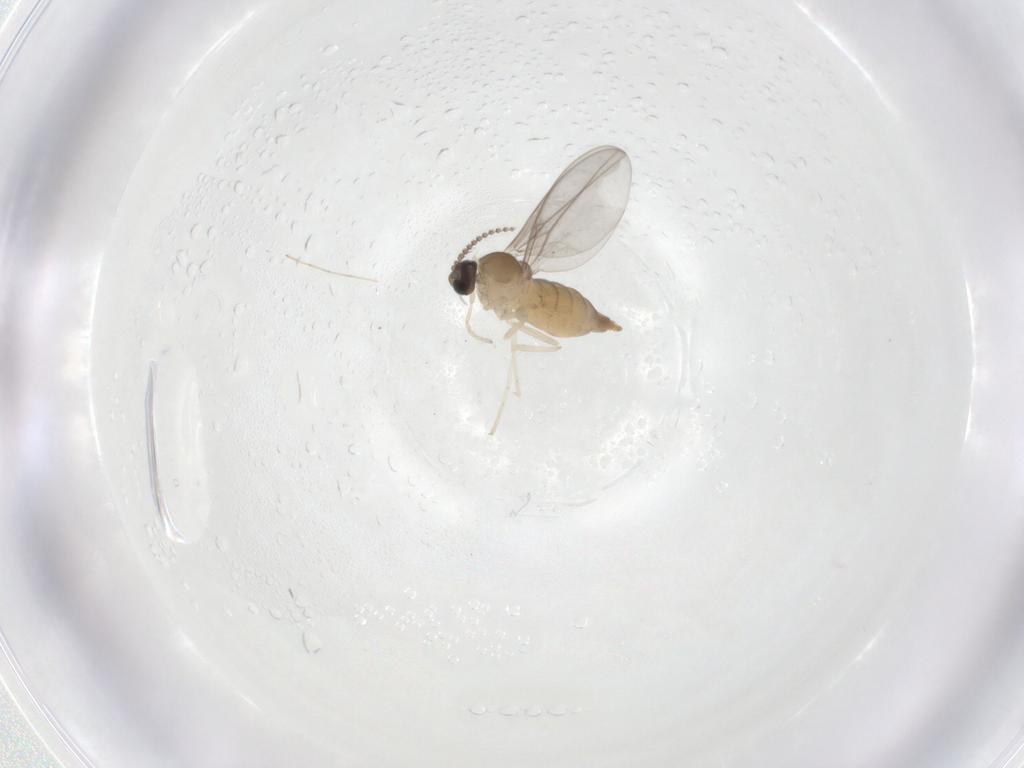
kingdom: Animalia
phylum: Arthropoda
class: Insecta
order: Diptera
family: Cecidomyiidae
